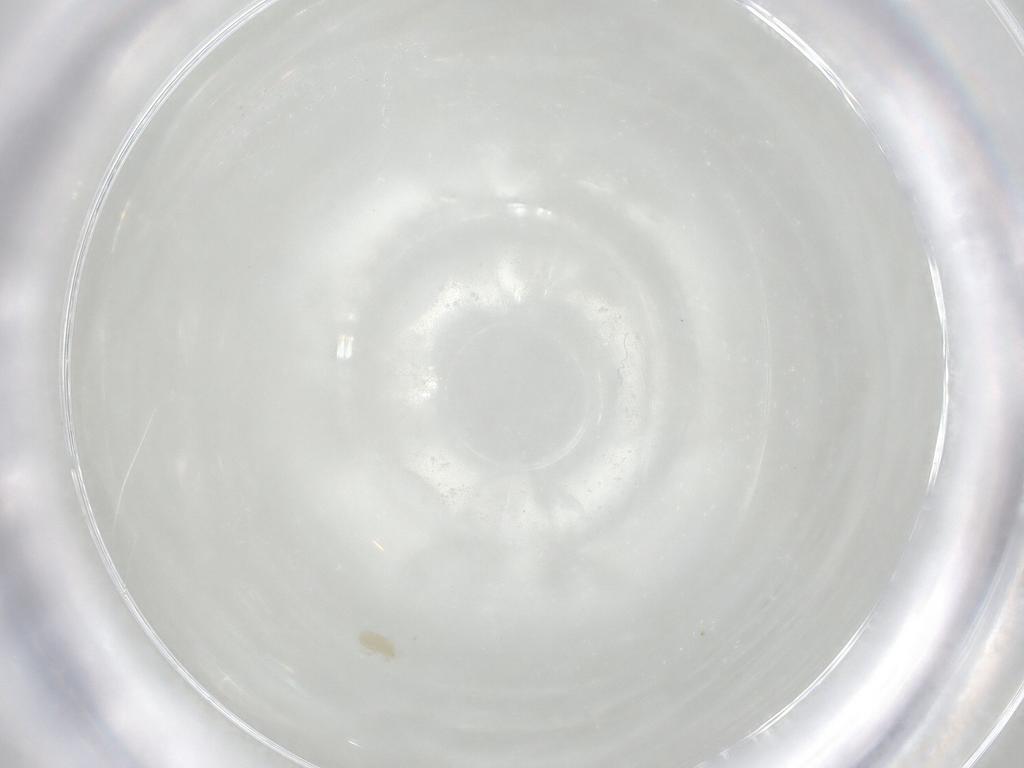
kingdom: Animalia
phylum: Arthropoda
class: Arachnida
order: Trombidiformes
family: Tetranychidae
